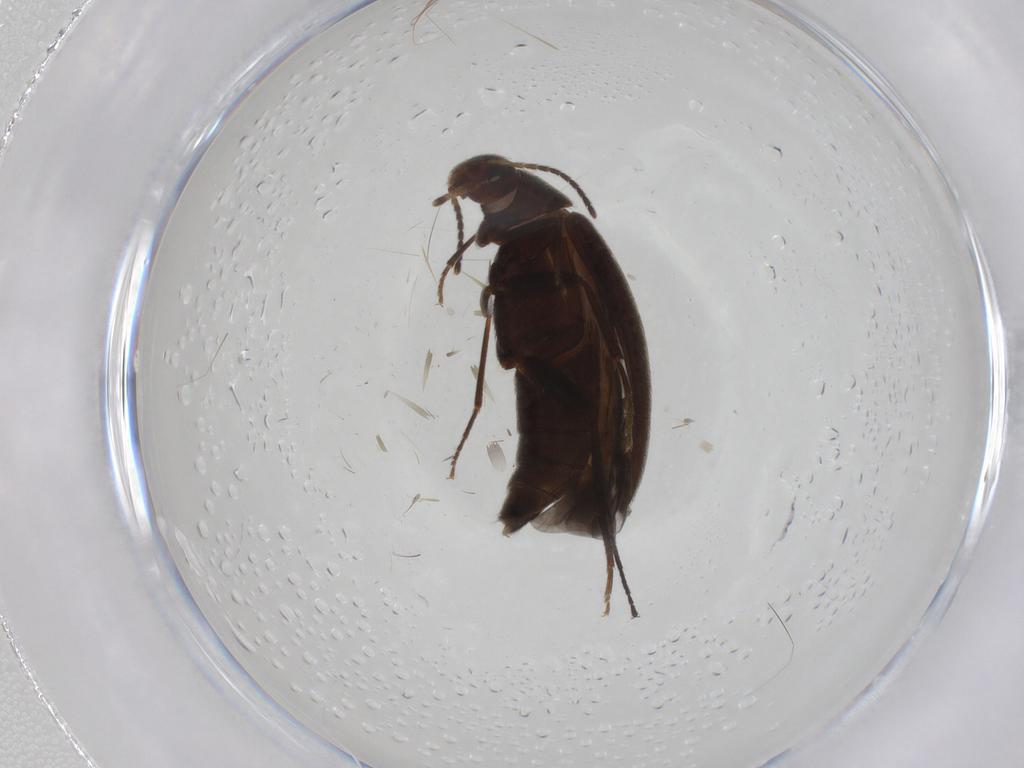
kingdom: Animalia
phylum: Arthropoda
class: Insecta
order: Coleoptera
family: Melandryidae
